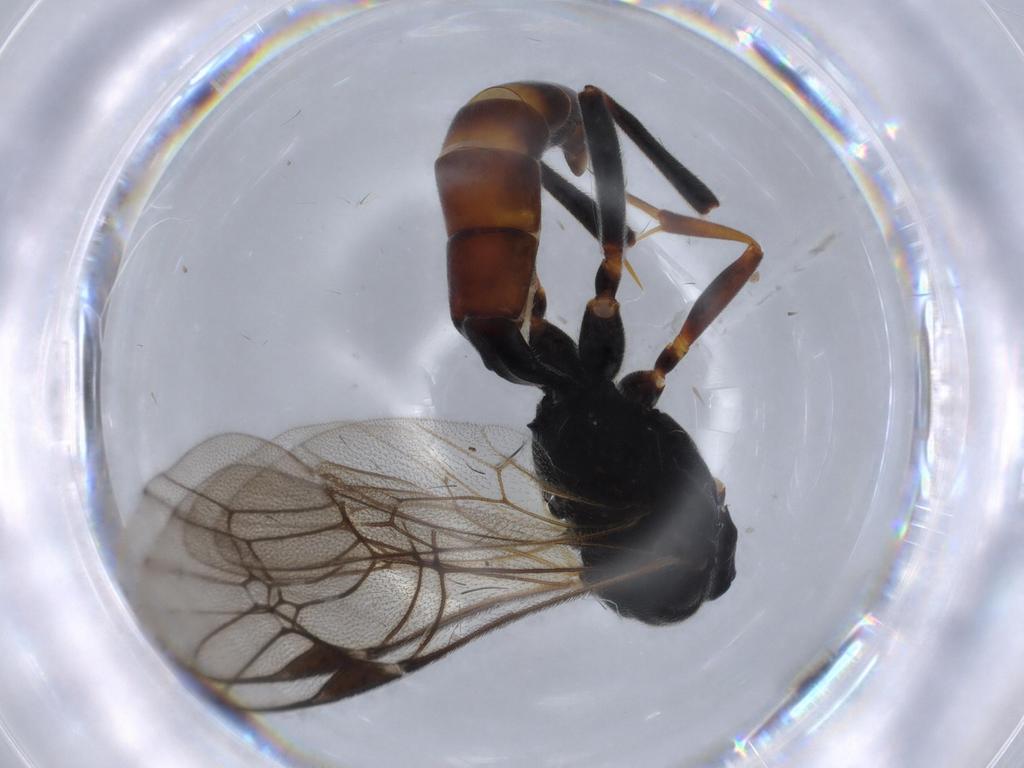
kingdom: Animalia
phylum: Arthropoda
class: Insecta
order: Hymenoptera
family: Ichneumonidae
